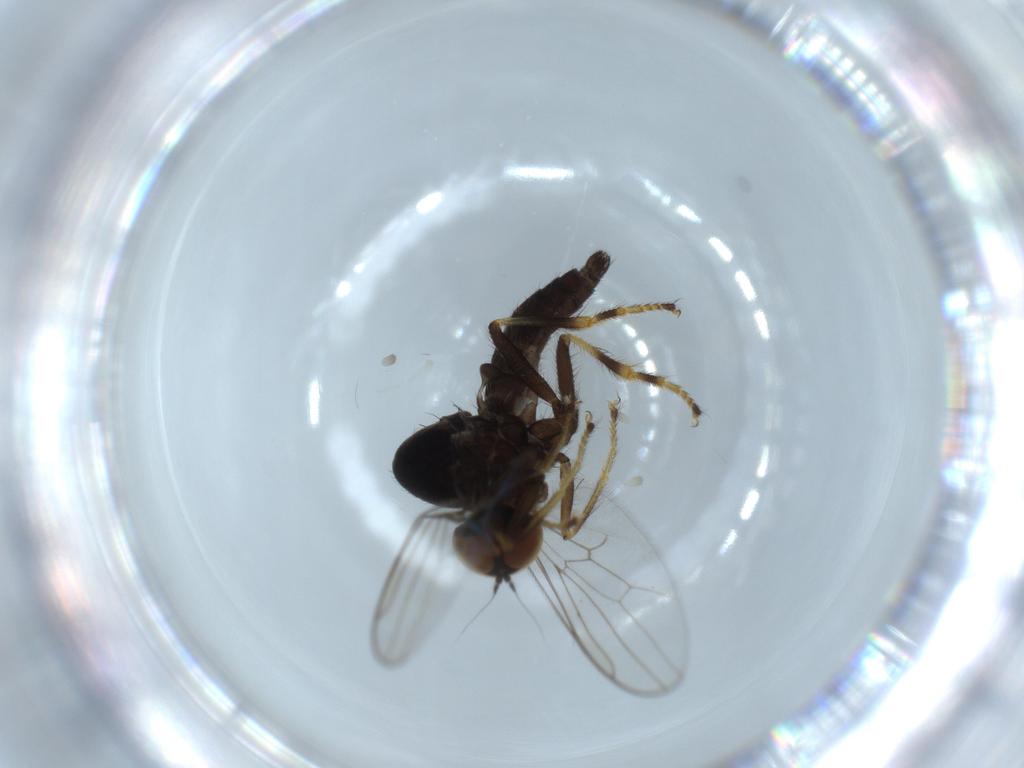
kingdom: Animalia
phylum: Arthropoda
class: Insecta
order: Diptera
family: Hybotidae
